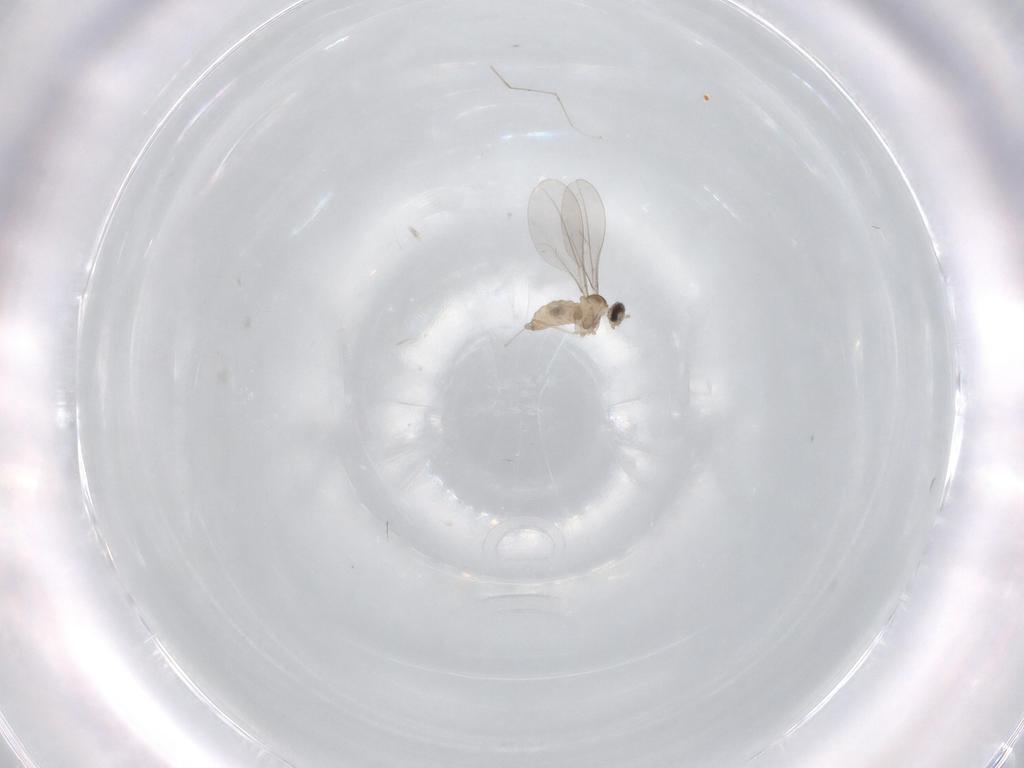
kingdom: Animalia
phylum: Arthropoda
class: Insecta
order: Diptera
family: Psychodidae
